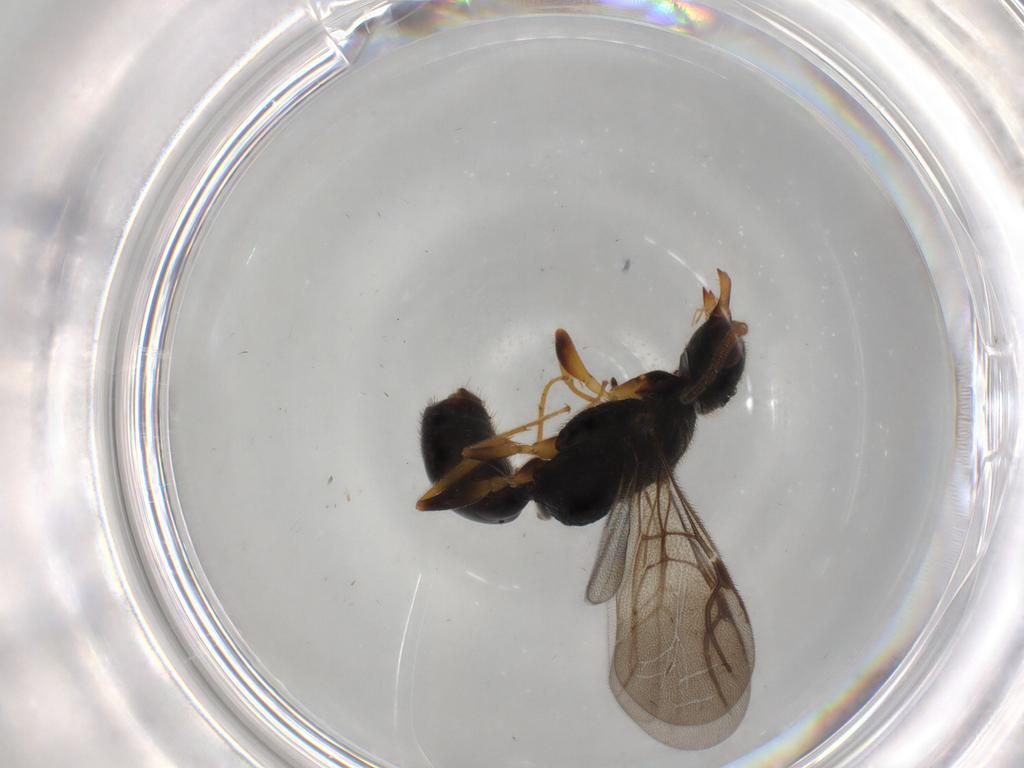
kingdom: Animalia
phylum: Arthropoda
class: Insecta
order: Hymenoptera
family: Bethylidae
